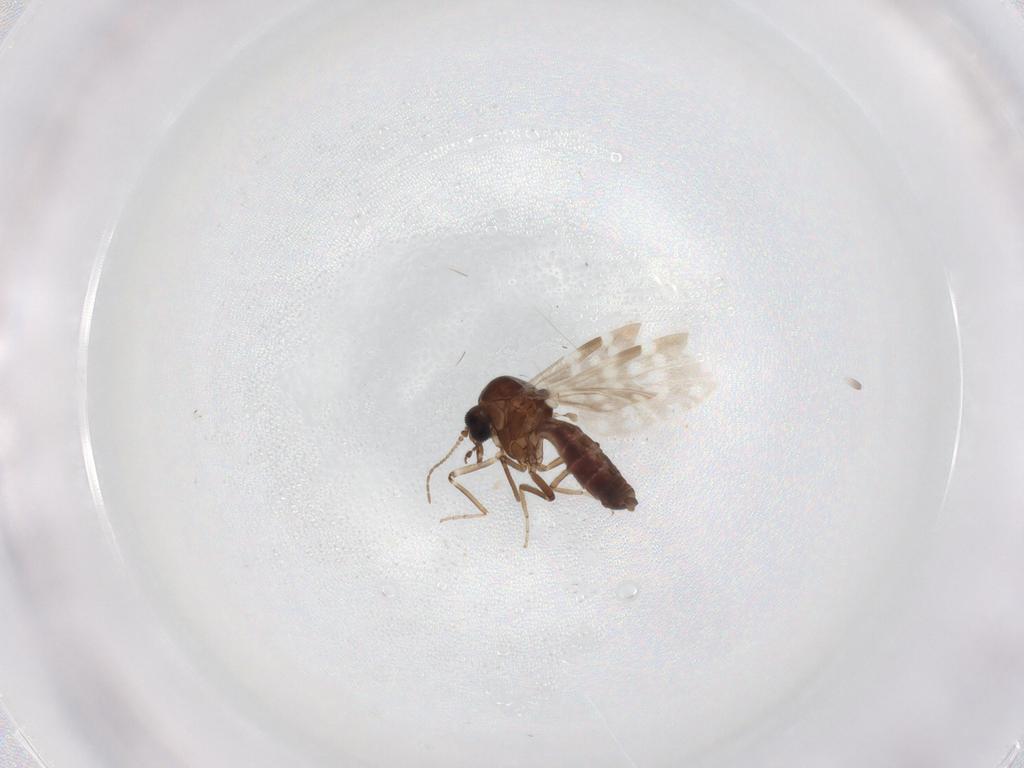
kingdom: Animalia
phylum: Arthropoda
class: Insecta
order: Diptera
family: Ceratopogonidae
